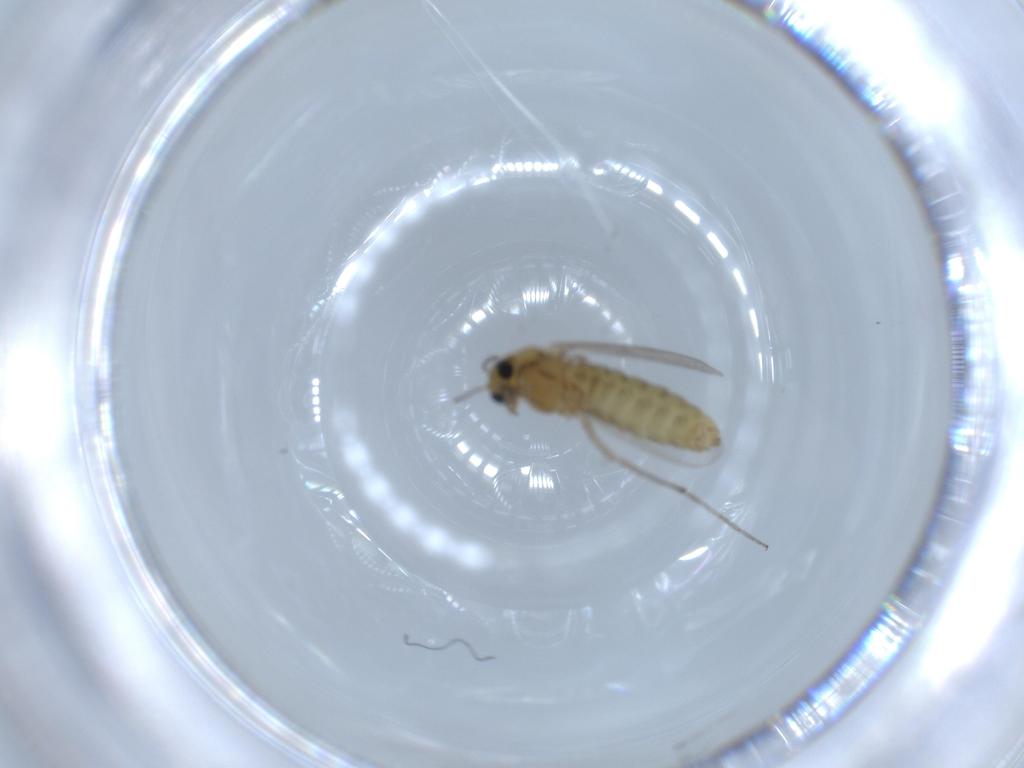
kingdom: Animalia
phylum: Arthropoda
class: Insecta
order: Diptera
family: Chironomidae
